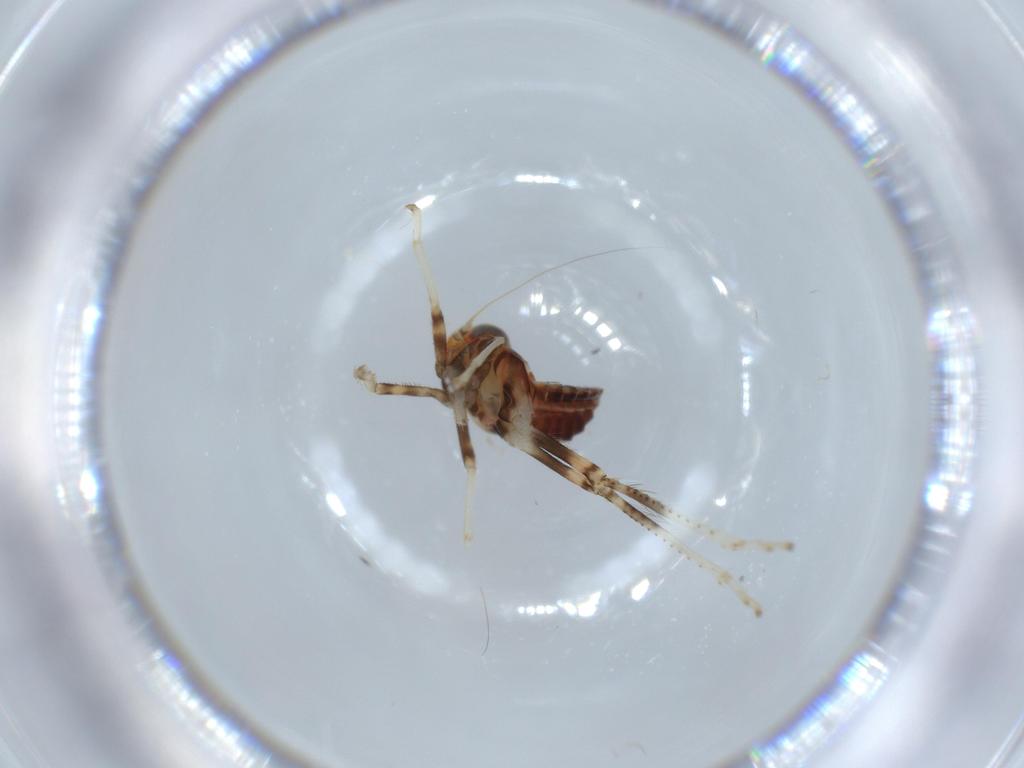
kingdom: Animalia
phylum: Arthropoda
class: Insecta
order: Hemiptera
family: Cicadellidae
